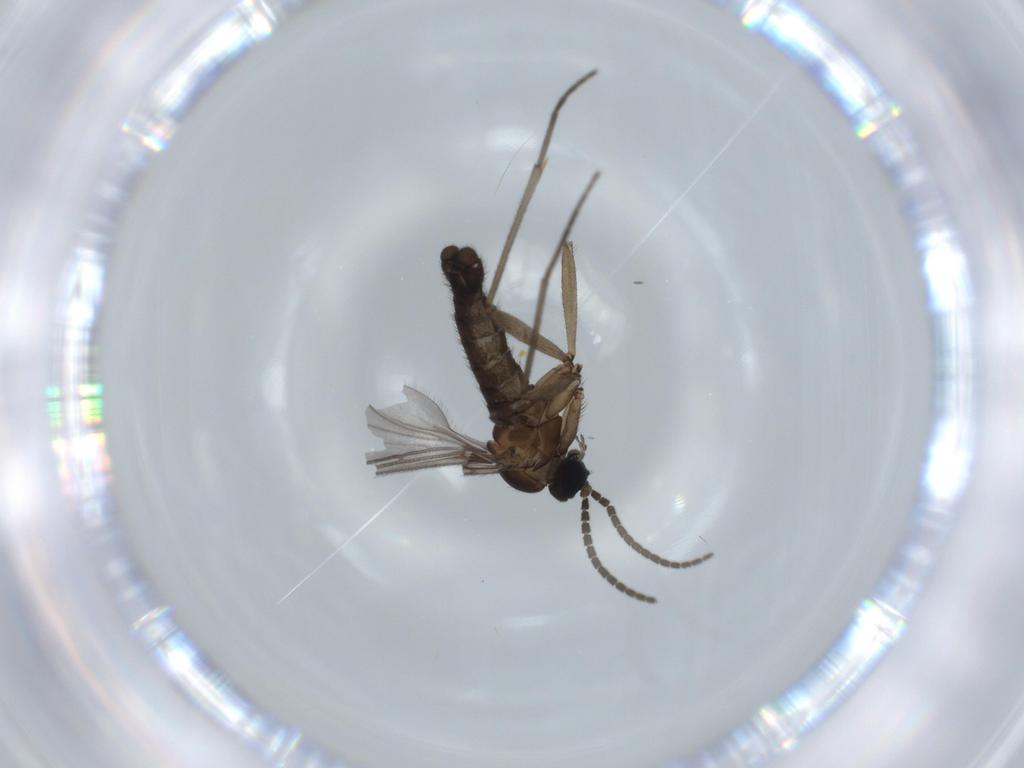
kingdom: Animalia
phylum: Arthropoda
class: Insecta
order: Diptera
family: Sciaridae
